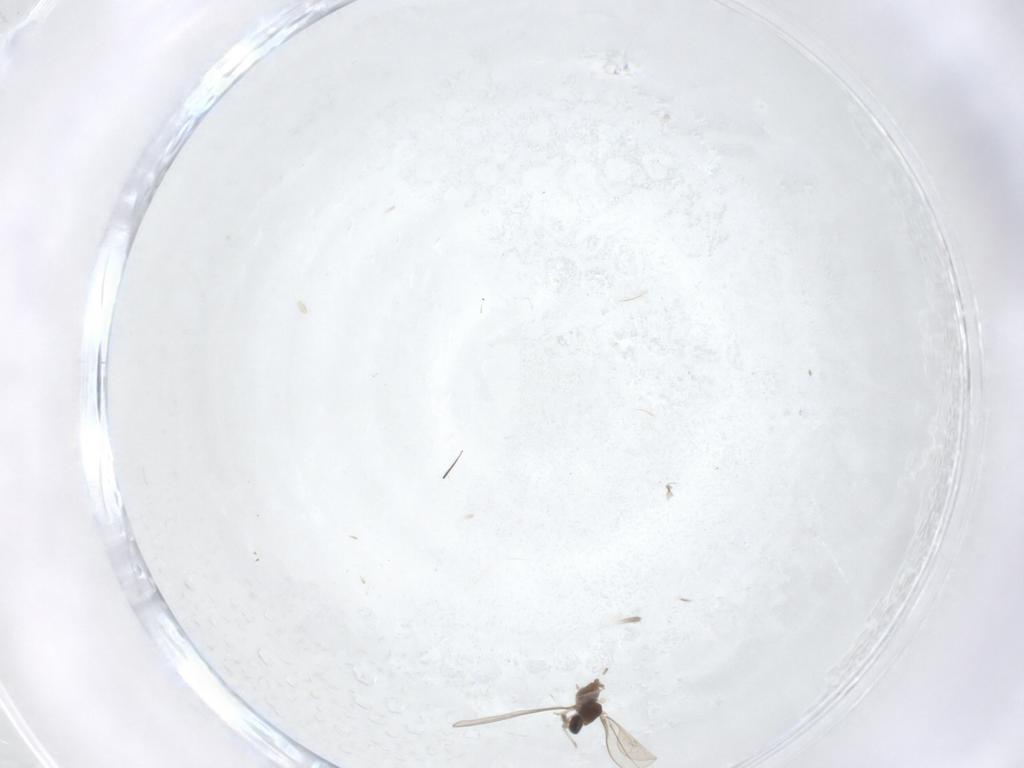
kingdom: Animalia
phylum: Arthropoda
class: Insecta
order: Diptera
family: Cecidomyiidae
